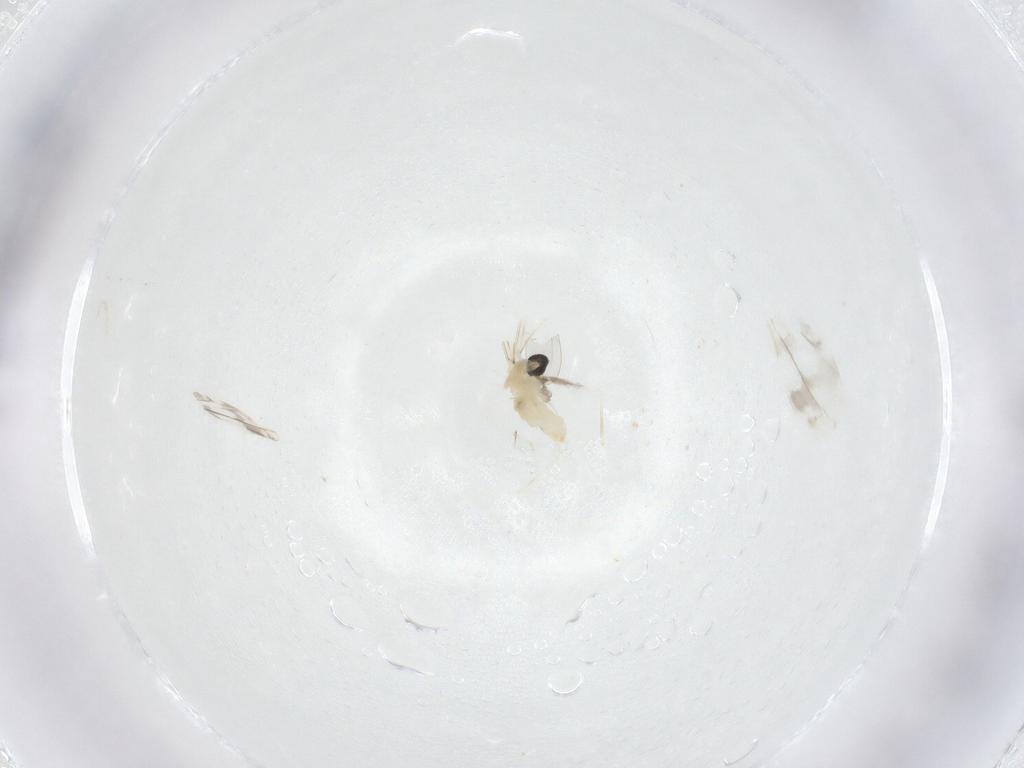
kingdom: Animalia
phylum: Arthropoda
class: Insecta
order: Diptera
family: Cecidomyiidae
